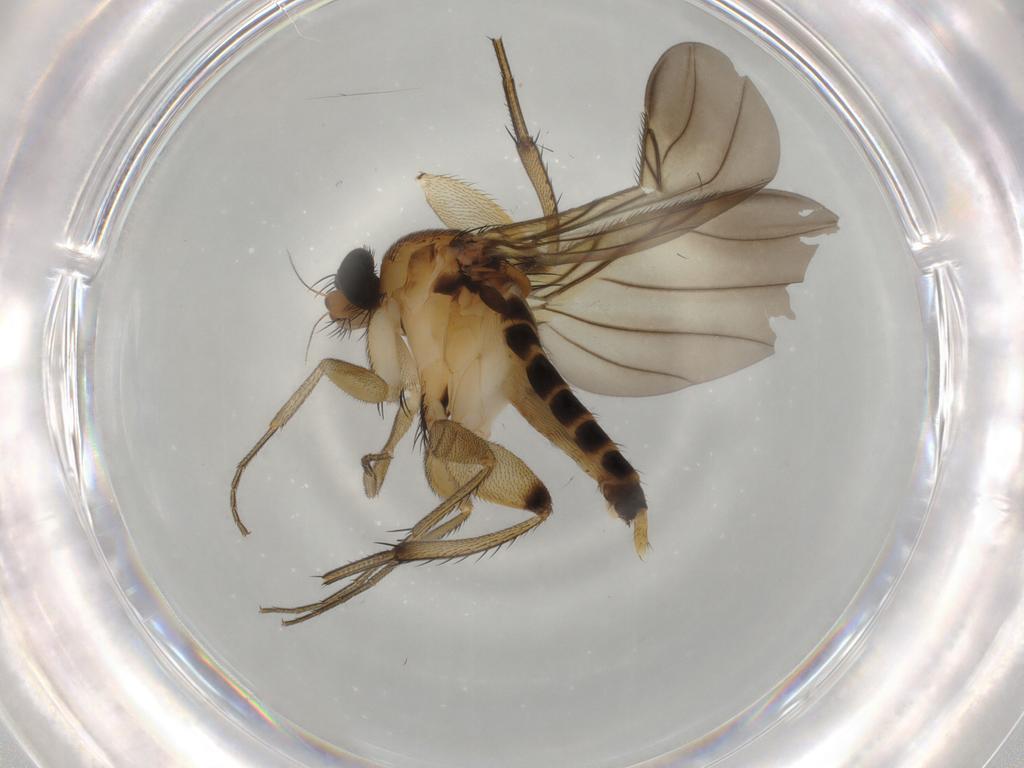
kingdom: Animalia
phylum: Arthropoda
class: Insecta
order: Diptera
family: Phoridae
